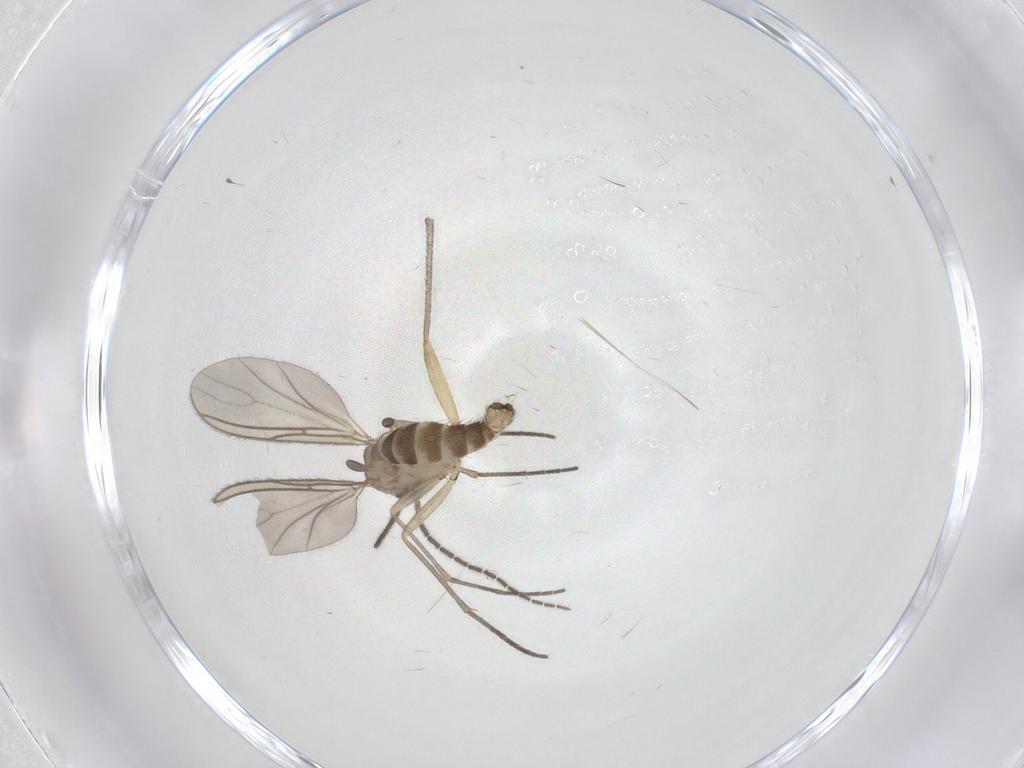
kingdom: Animalia
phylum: Arthropoda
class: Insecta
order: Diptera
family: Sciaridae
